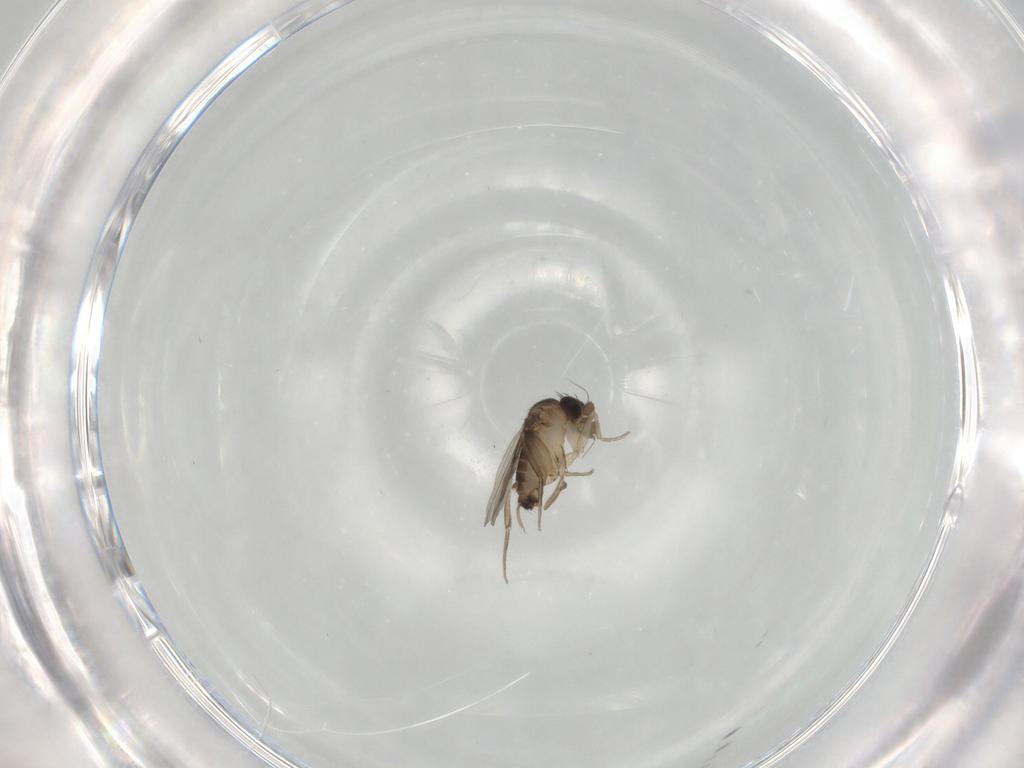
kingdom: Animalia
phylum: Arthropoda
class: Insecta
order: Diptera
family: Phoridae
